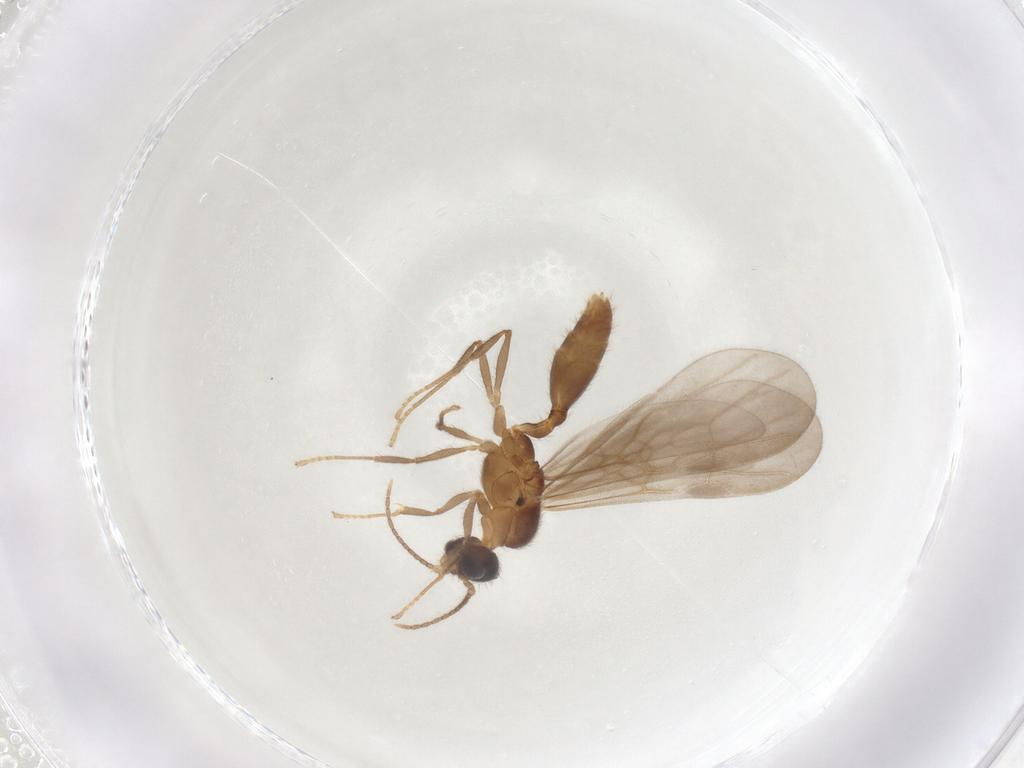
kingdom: Animalia
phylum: Arthropoda
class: Insecta
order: Hymenoptera
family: Formicidae
